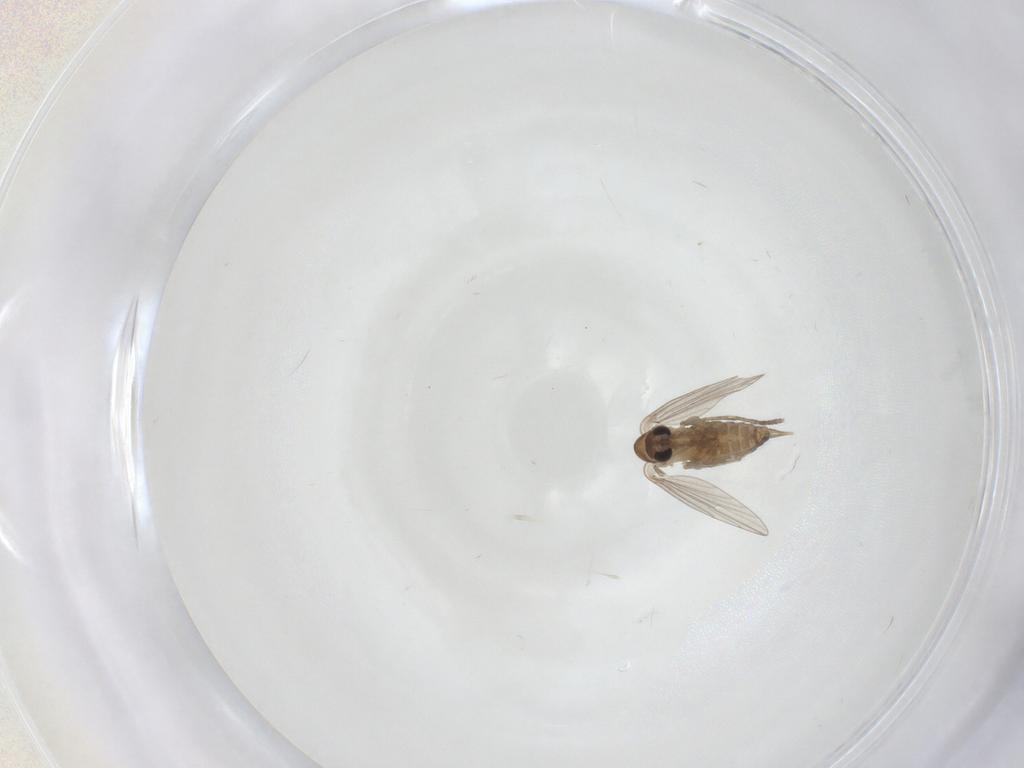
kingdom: Animalia
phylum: Arthropoda
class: Insecta
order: Diptera
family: Psychodidae
